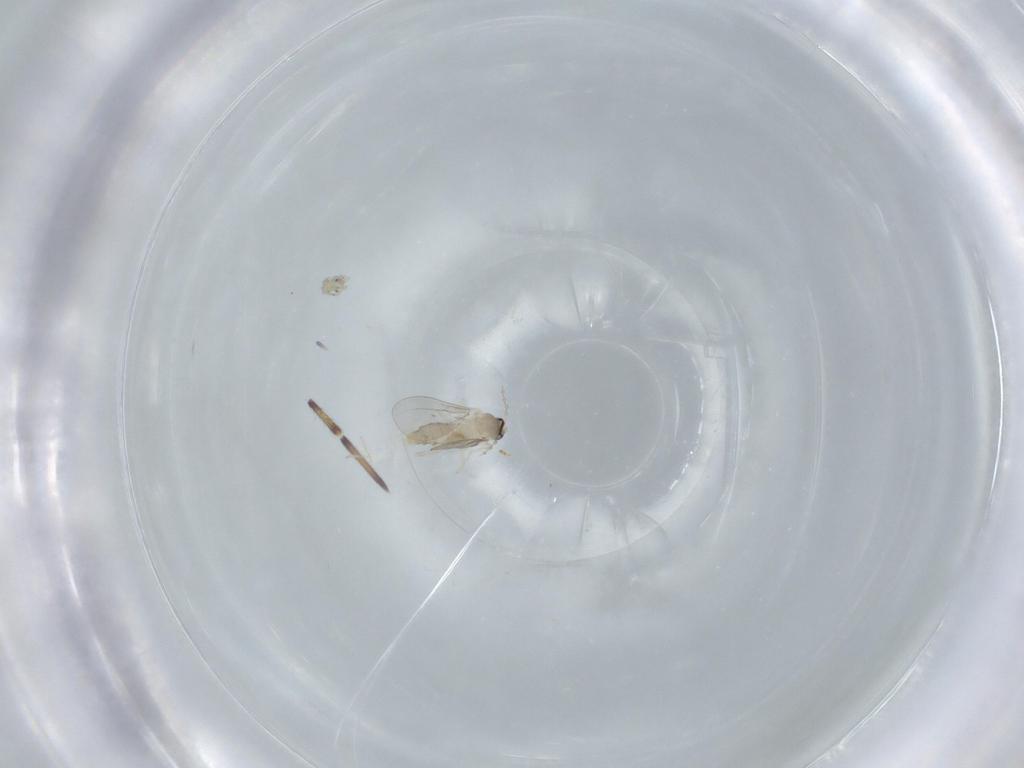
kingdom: Animalia
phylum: Arthropoda
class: Insecta
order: Diptera
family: Cecidomyiidae
